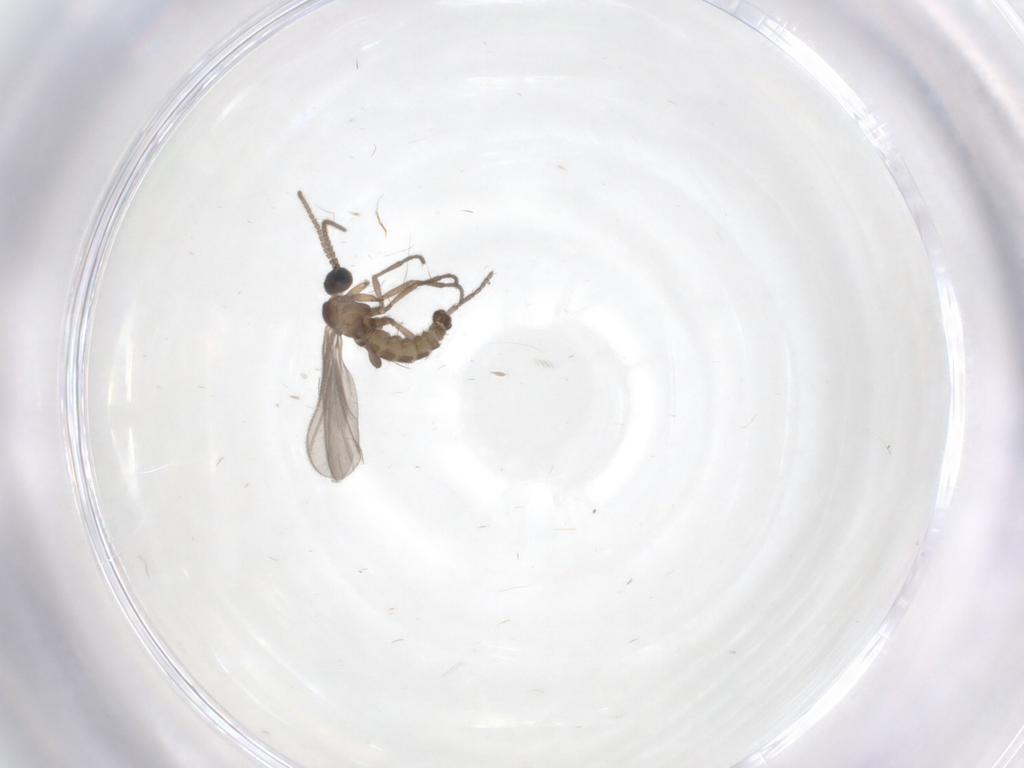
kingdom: Animalia
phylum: Arthropoda
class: Insecta
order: Diptera
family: Sciaridae
